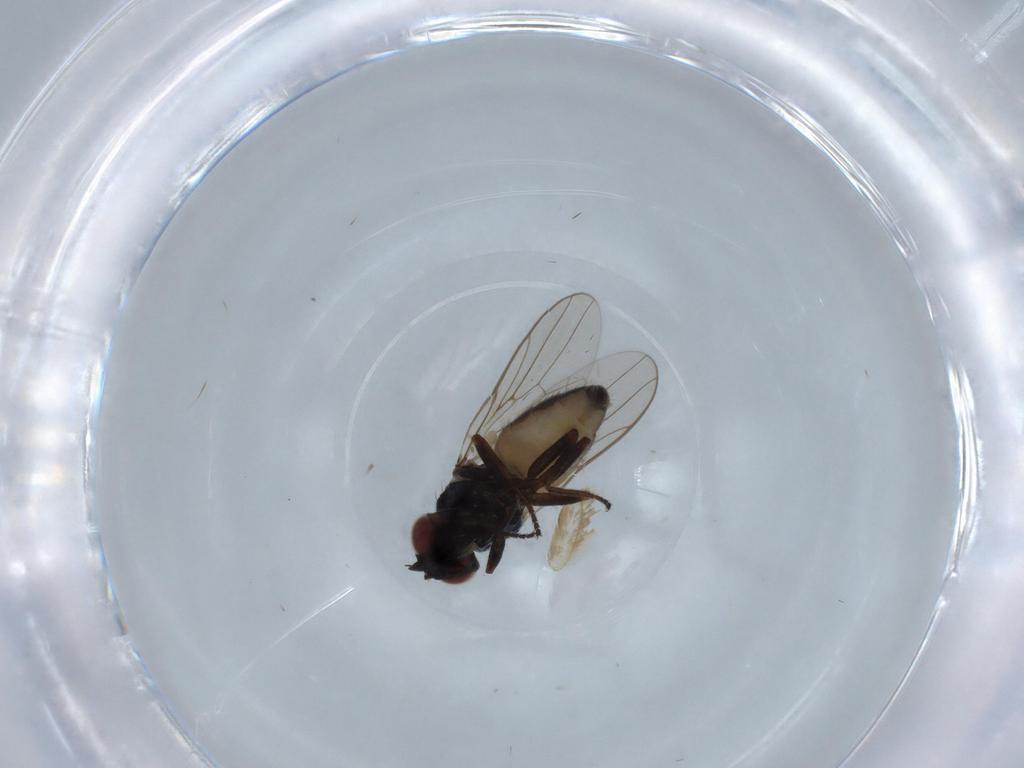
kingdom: Animalia
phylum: Arthropoda
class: Insecta
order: Diptera
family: Chloropidae
